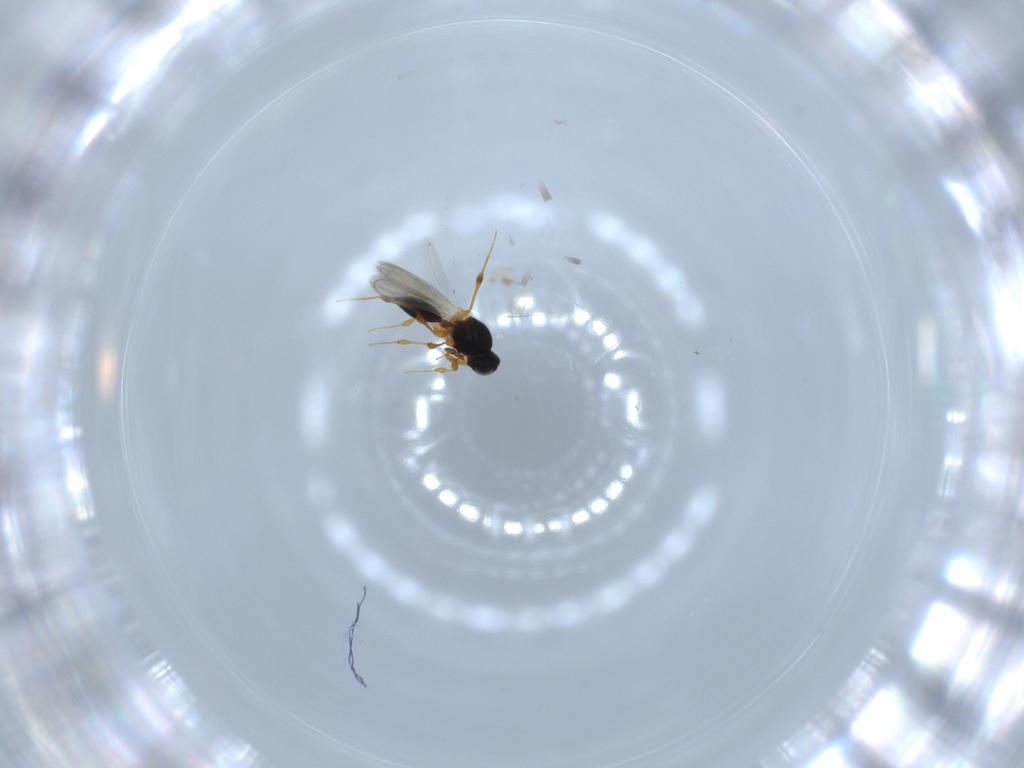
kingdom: Animalia
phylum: Arthropoda
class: Insecta
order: Hymenoptera
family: Platygastridae
